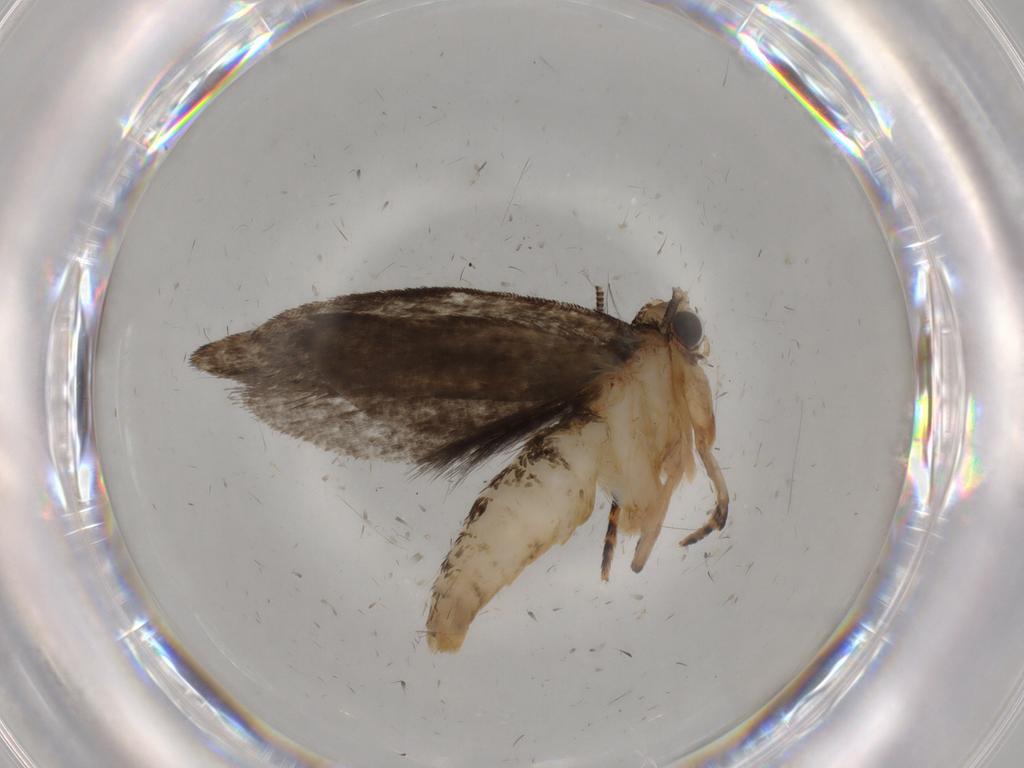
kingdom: Animalia
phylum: Arthropoda
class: Insecta
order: Lepidoptera
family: Tineidae
